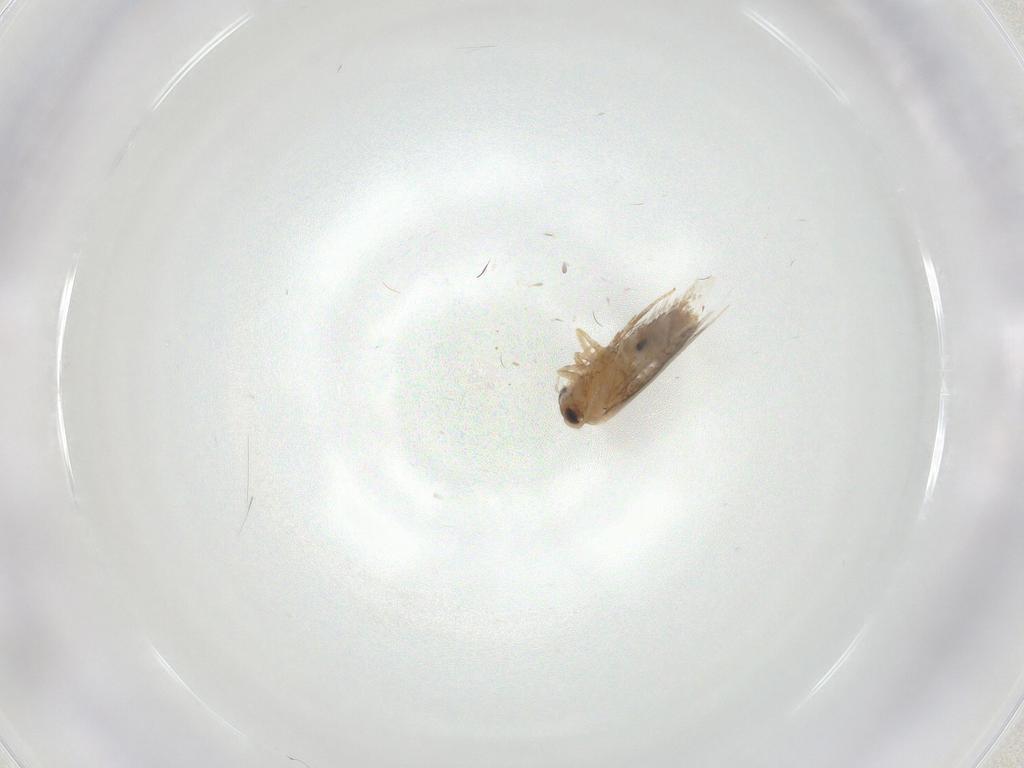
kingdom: Animalia
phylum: Arthropoda
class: Insecta
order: Lepidoptera
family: Nepticulidae
